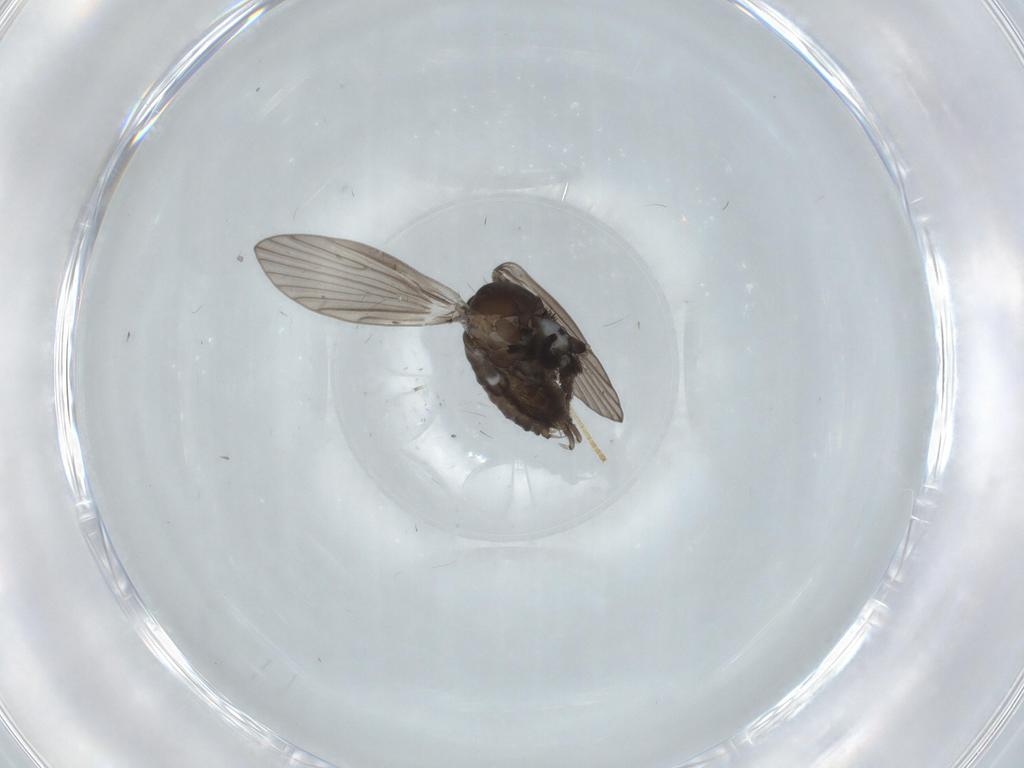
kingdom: Animalia
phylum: Arthropoda
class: Insecta
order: Diptera
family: Psychodidae
